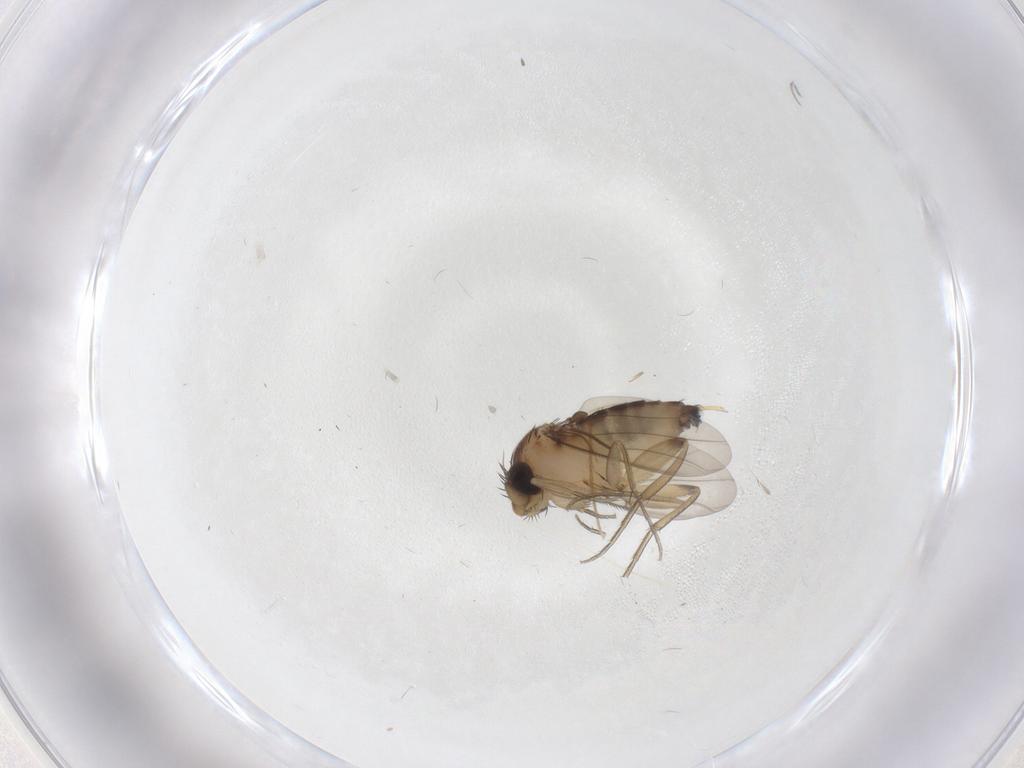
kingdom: Animalia
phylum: Arthropoda
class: Insecta
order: Diptera
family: Phoridae
